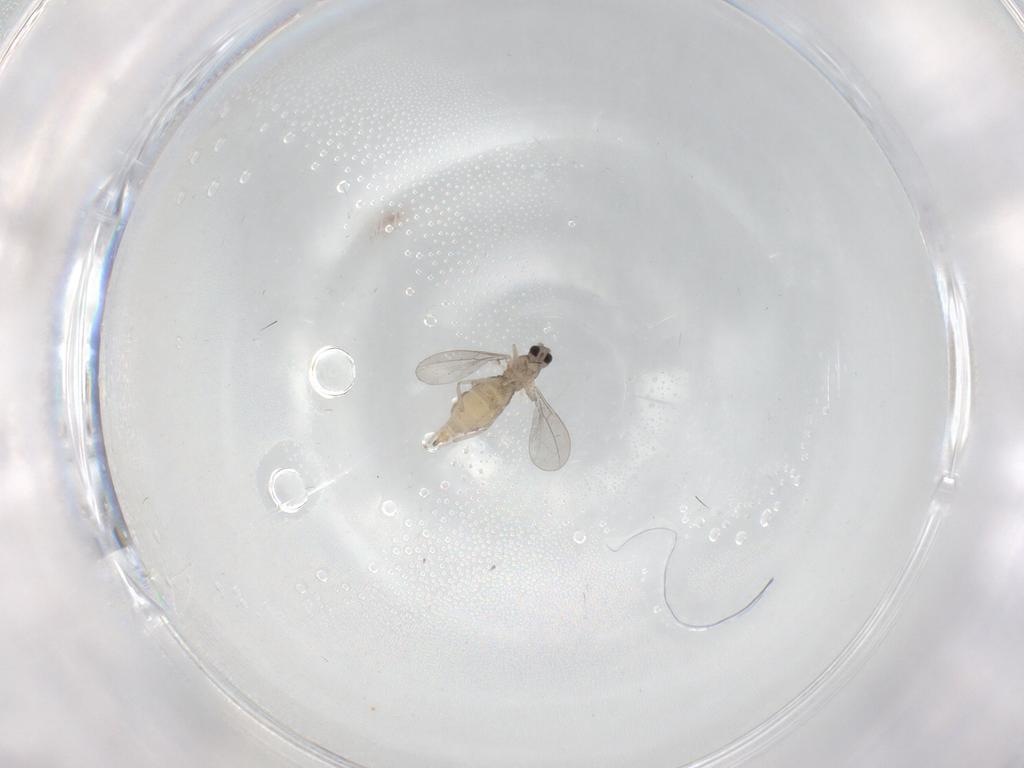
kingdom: Animalia
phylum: Arthropoda
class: Insecta
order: Diptera
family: Cecidomyiidae
